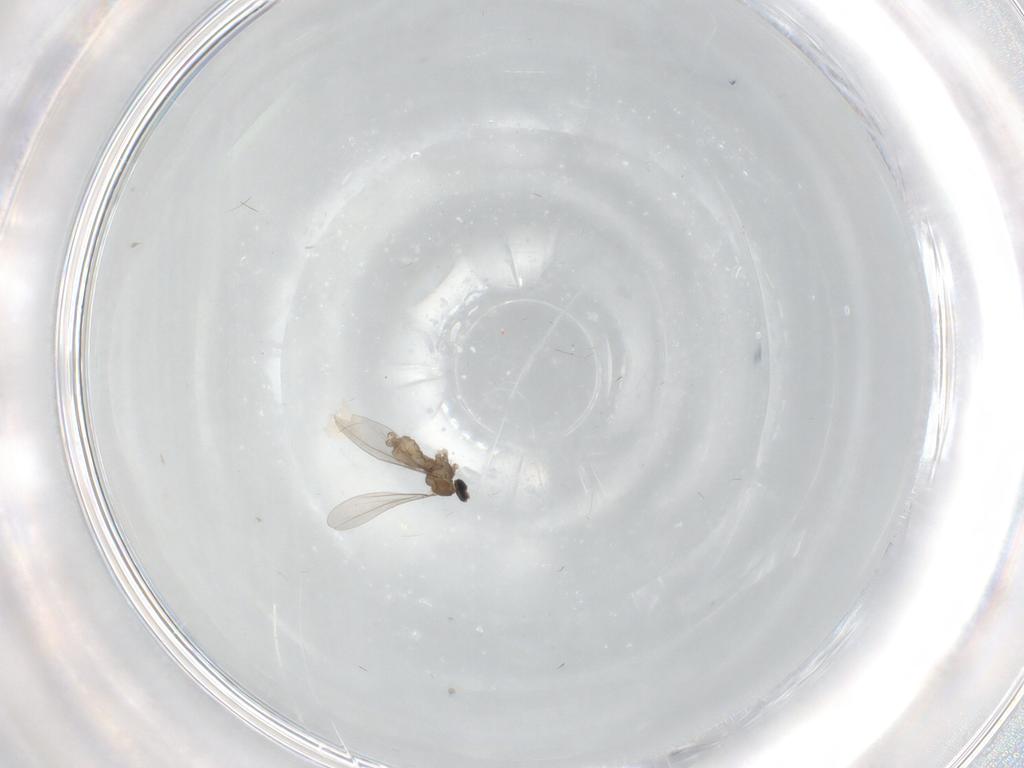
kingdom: Animalia
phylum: Arthropoda
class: Insecta
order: Diptera
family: Cecidomyiidae
